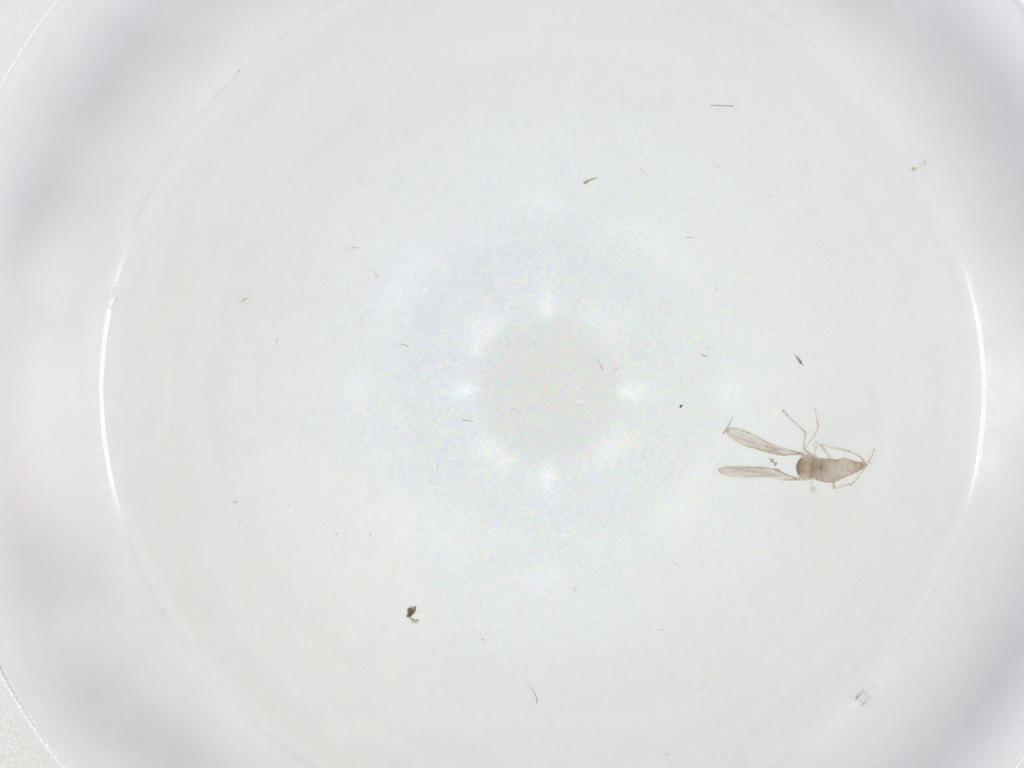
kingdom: Animalia
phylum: Arthropoda
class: Insecta
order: Diptera
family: Chironomidae
